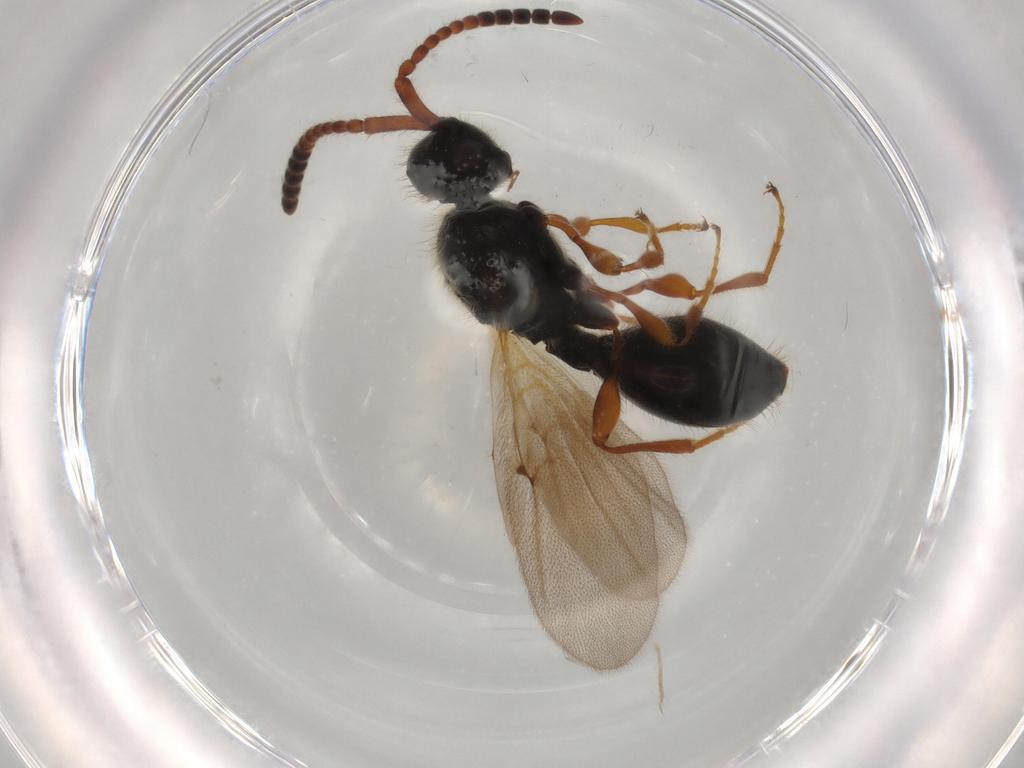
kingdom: Animalia
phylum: Arthropoda
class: Insecta
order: Hymenoptera
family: Diapriidae
